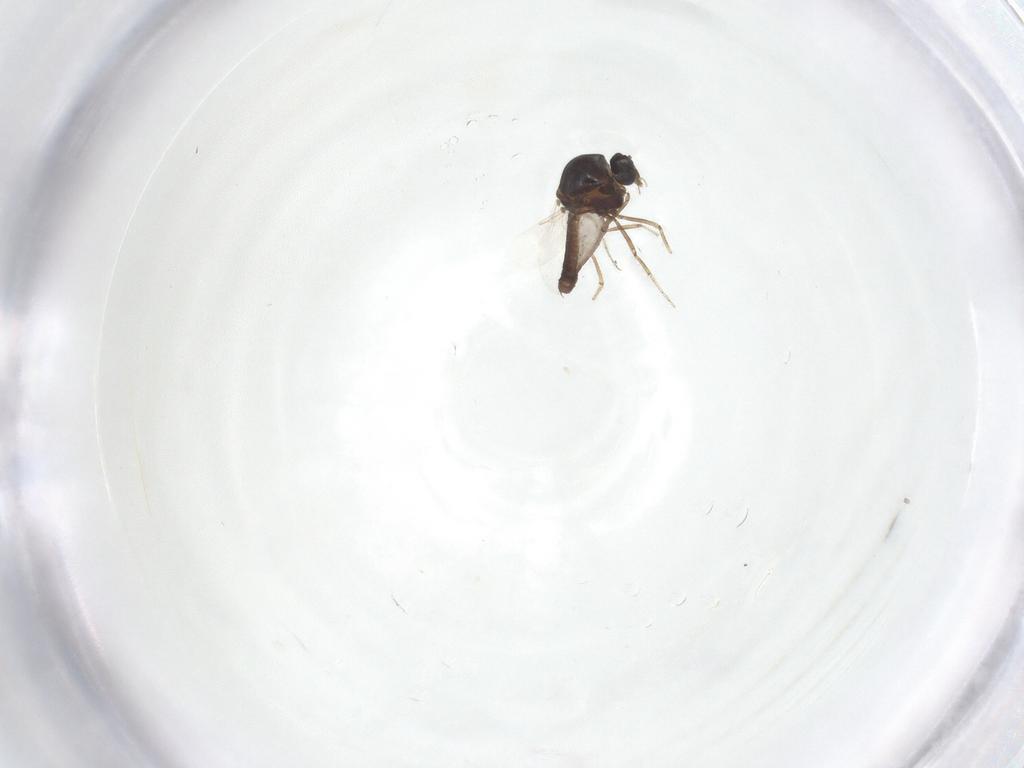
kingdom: Animalia
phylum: Arthropoda
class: Insecta
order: Diptera
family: Ceratopogonidae
